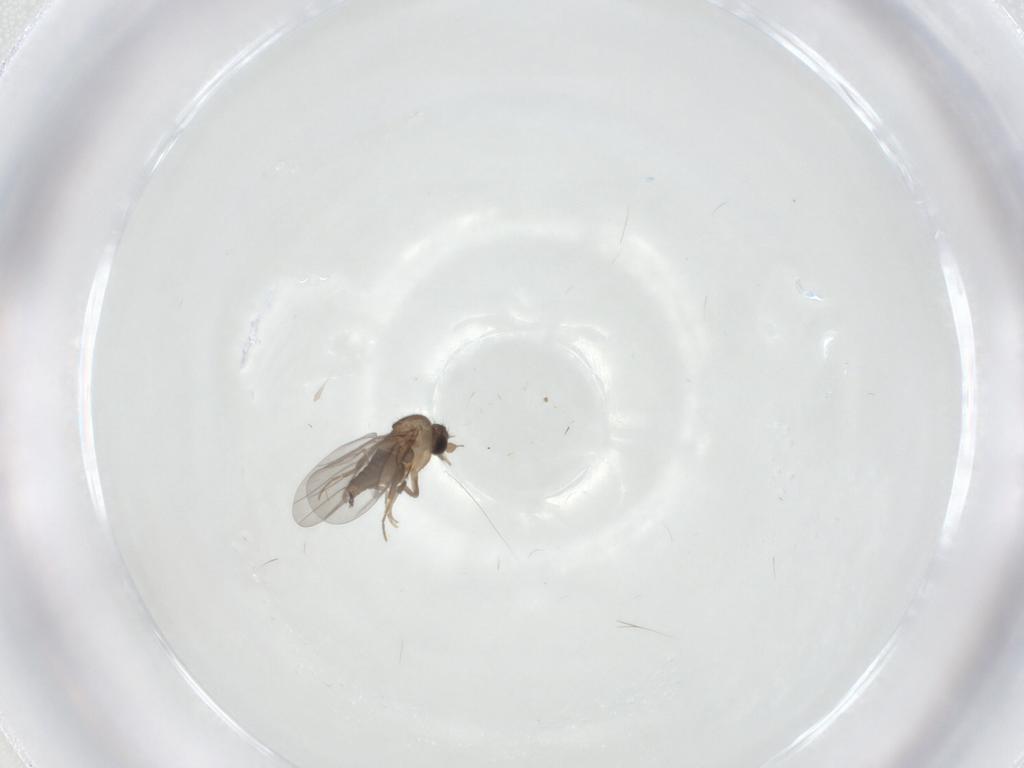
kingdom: Animalia
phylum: Arthropoda
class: Insecta
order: Diptera
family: Cecidomyiidae
